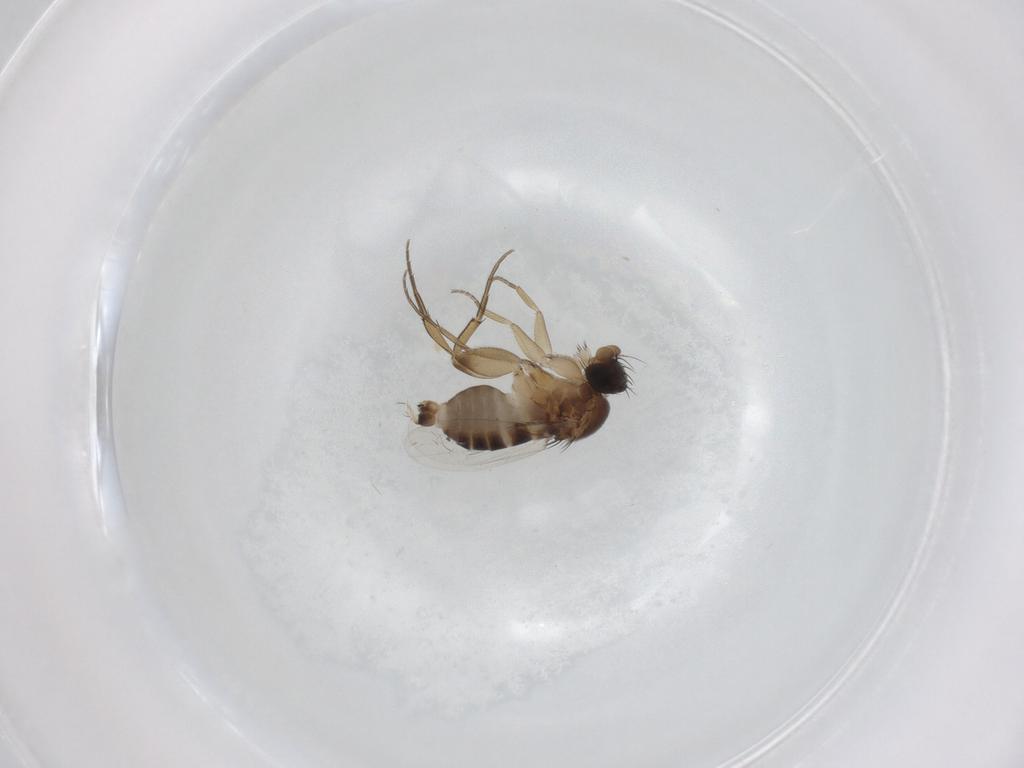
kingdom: Animalia
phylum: Arthropoda
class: Insecta
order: Diptera
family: Phoridae
